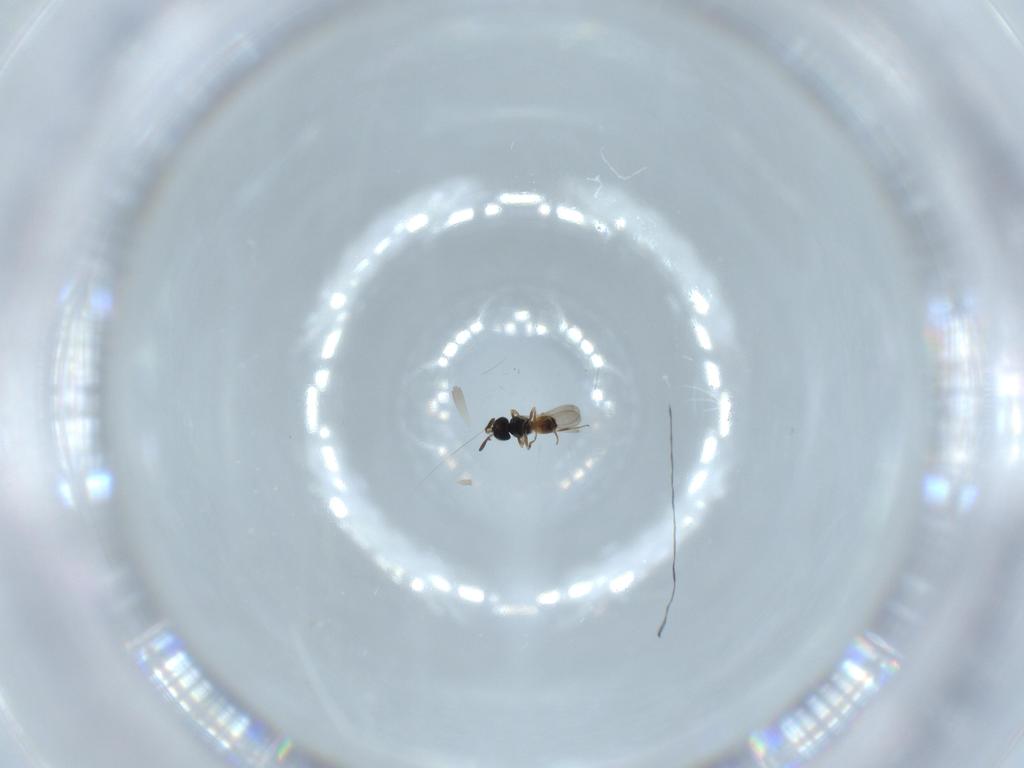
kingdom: Animalia
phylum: Arthropoda
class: Insecta
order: Hymenoptera
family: Scelionidae
